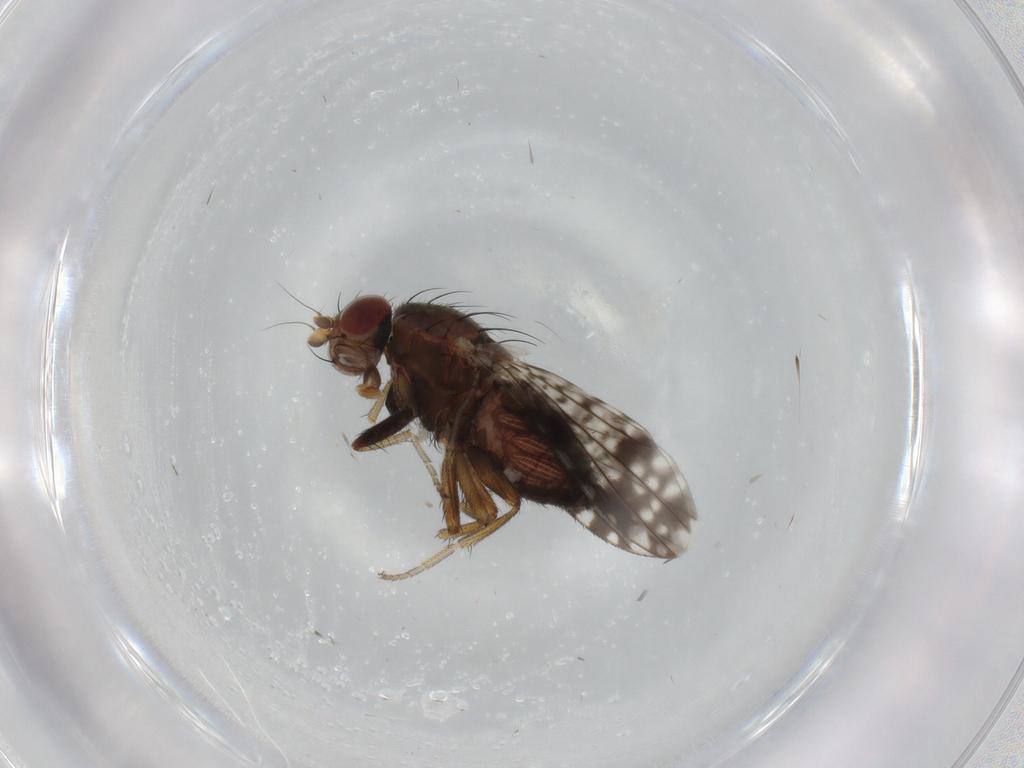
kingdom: Animalia
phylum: Arthropoda
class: Insecta
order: Diptera
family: Tephritidae
